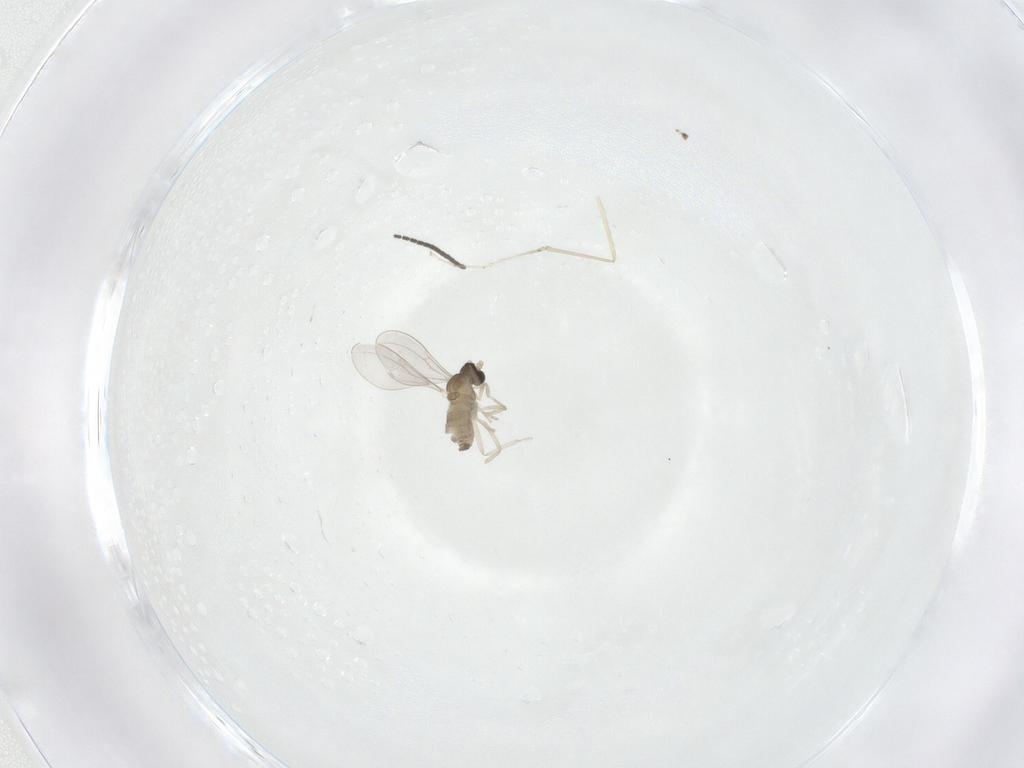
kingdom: Animalia
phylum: Arthropoda
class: Insecta
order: Diptera
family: Cecidomyiidae
